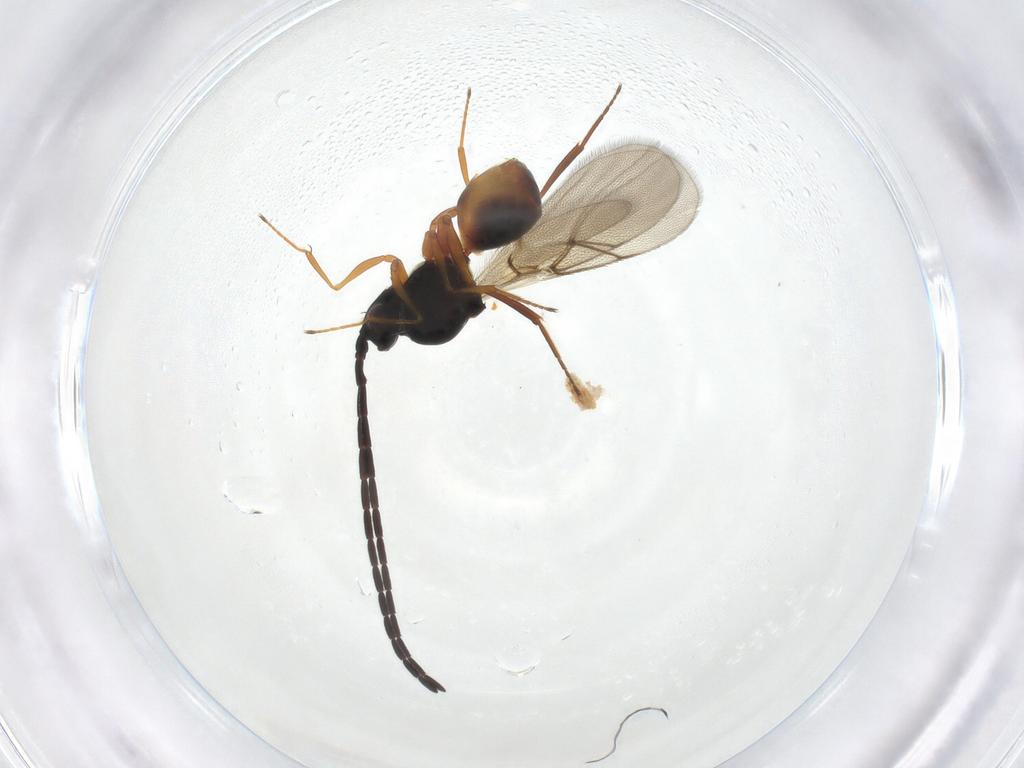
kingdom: Animalia
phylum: Arthropoda
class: Insecta
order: Hymenoptera
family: Figitidae
